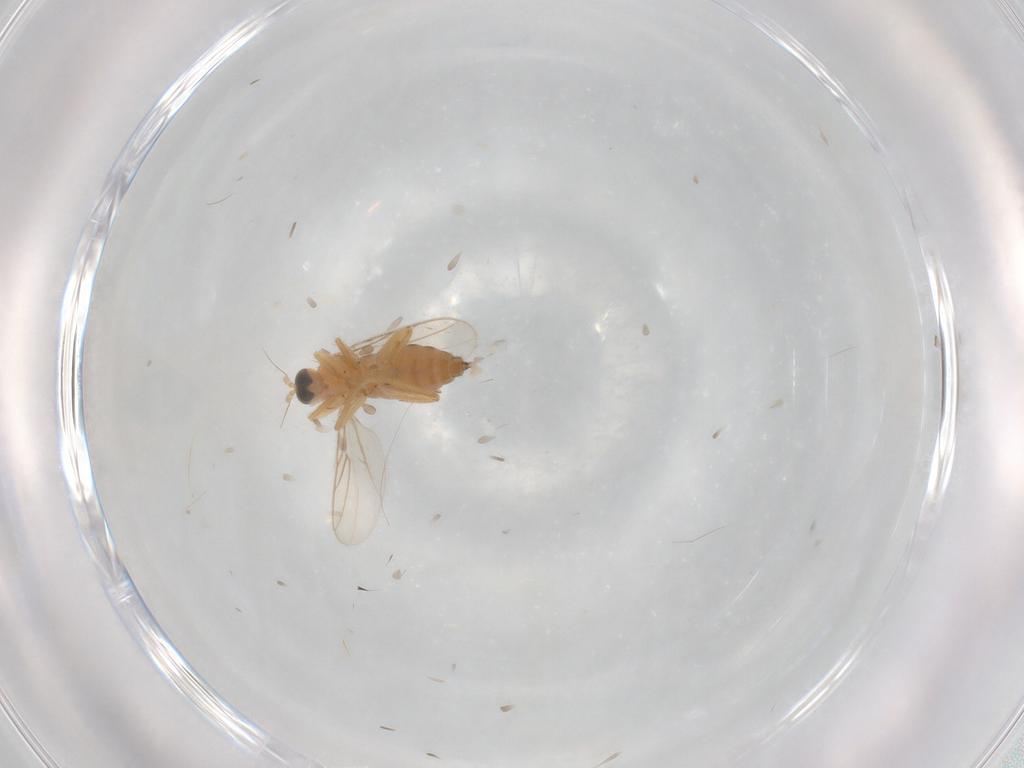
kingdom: Animalia
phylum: Arthropoda
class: Insecta
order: Diptera
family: Hybotidae
